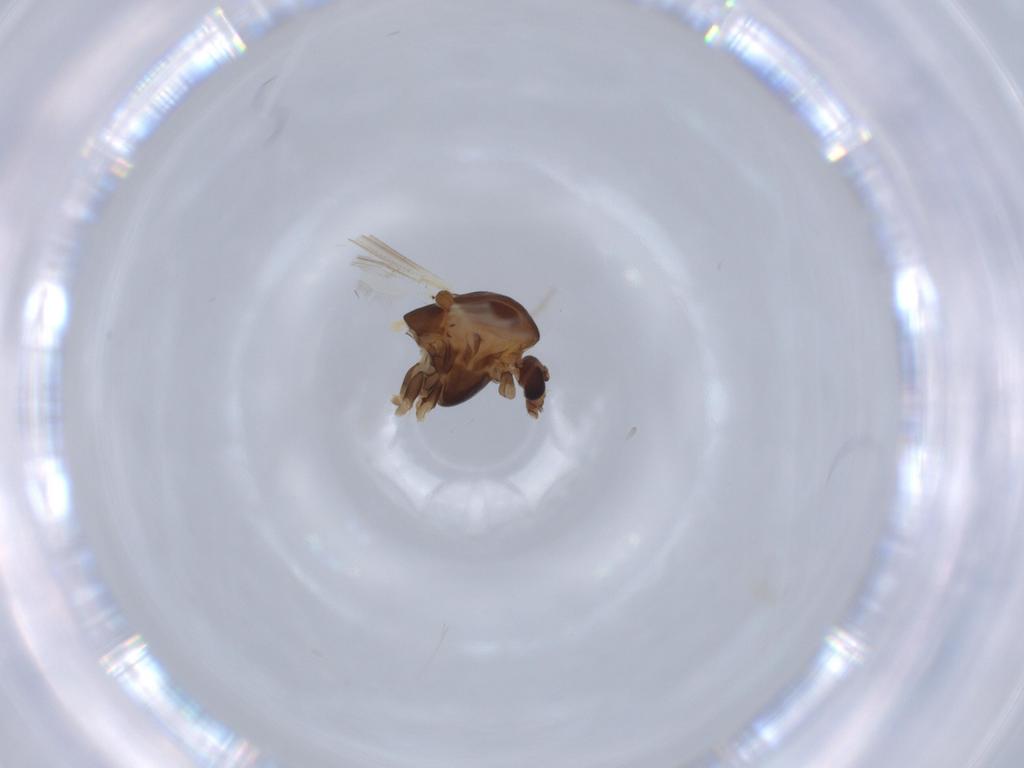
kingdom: Animalia
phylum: Arthropoda
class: Insecta
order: Diptera
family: Chironomidae
